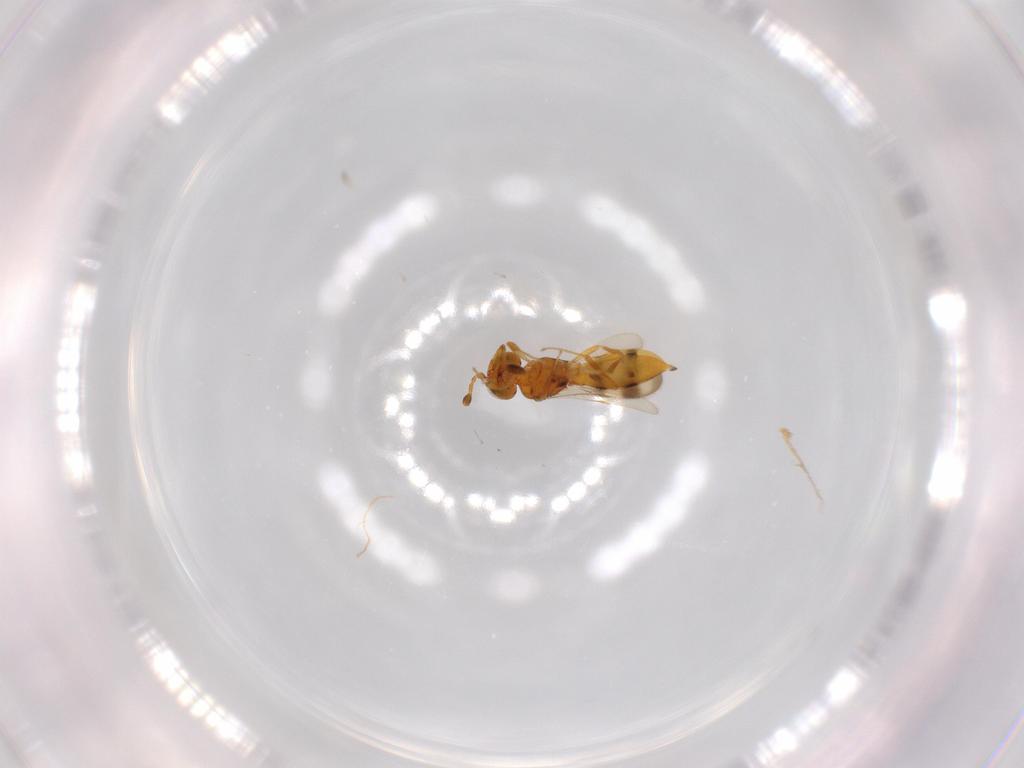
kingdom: Animalia
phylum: Arthropoda
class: Insecta
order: Hymenoptera
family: Scelionidae
